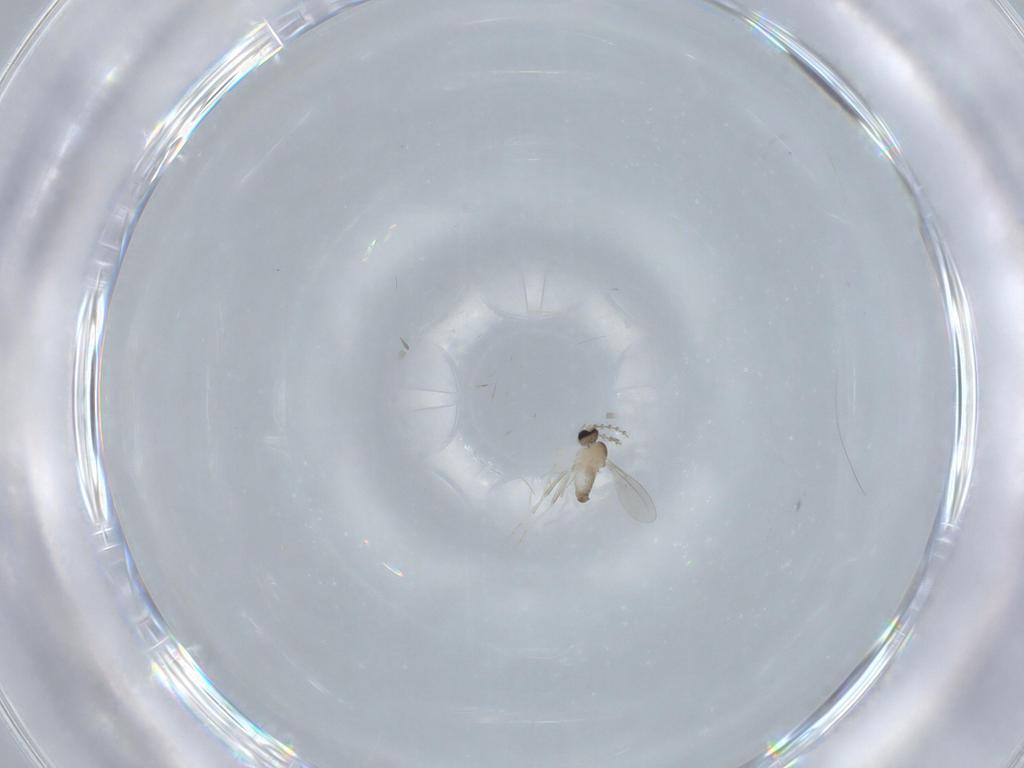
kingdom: Animalia
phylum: Arthropoda
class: Insecta
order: Diptera
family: Cecidomyiidae
